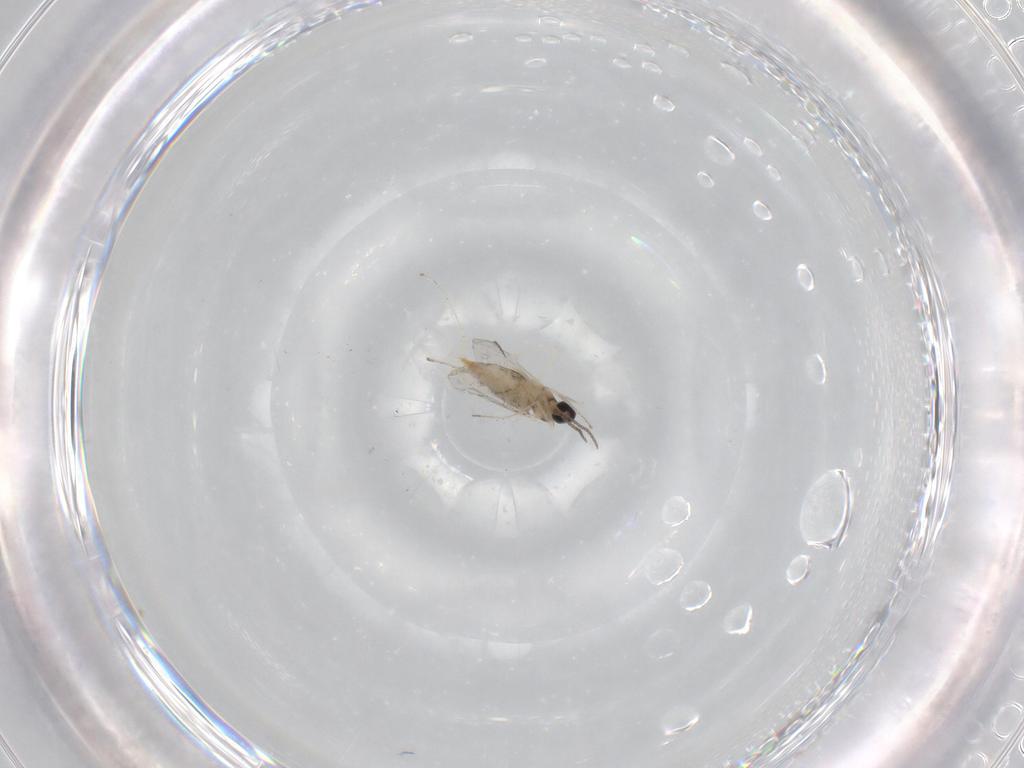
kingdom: Animalia
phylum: Arthropoda
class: Insecta
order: Diptera
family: Cecidomyiidae
